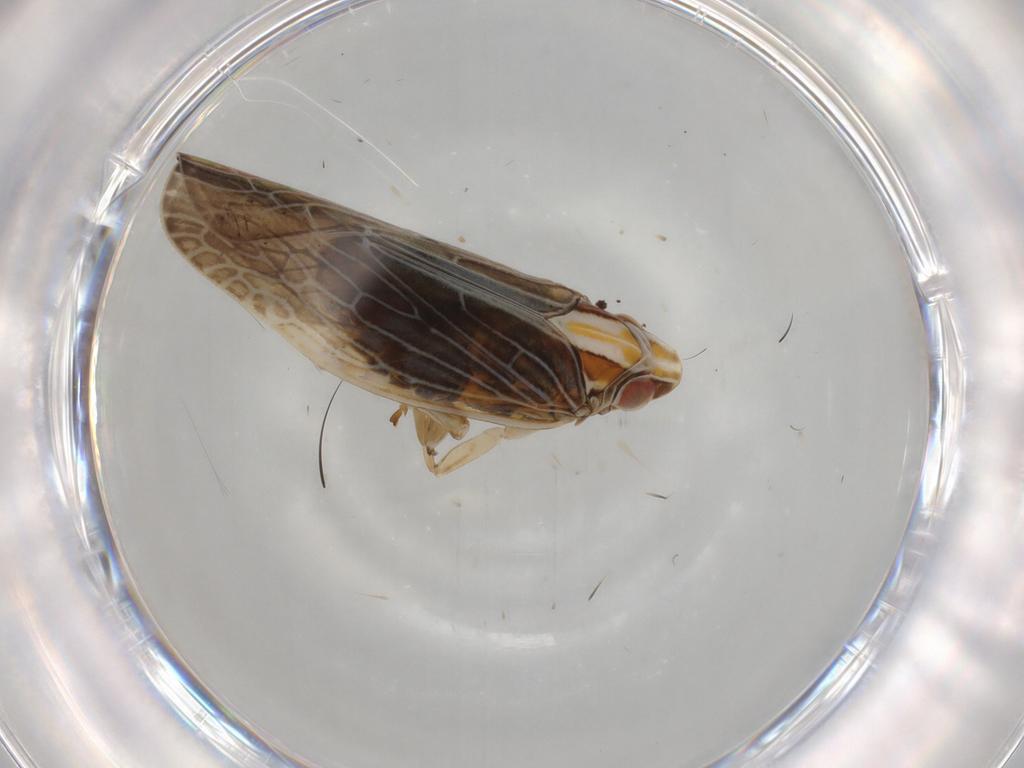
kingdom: Animalia
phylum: Arthropoda
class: Insecta
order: Hemiptera
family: Achilidae
